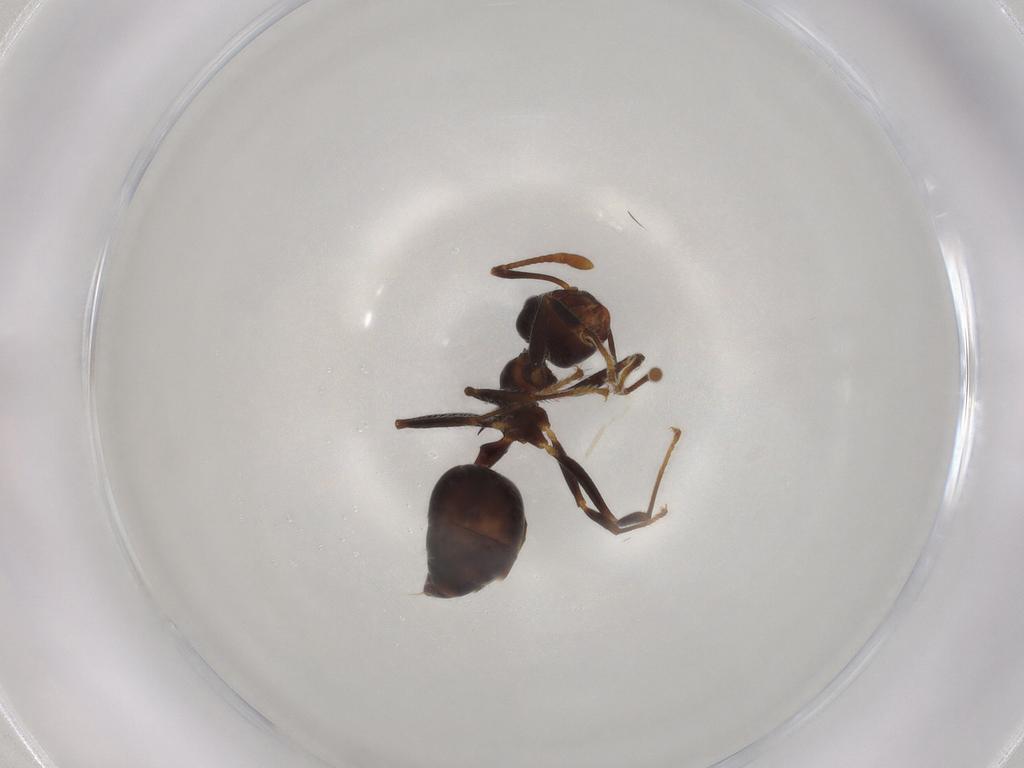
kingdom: Animalia
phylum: Arthropoda
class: Insecta
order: Hymenoptera
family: Formicidae
